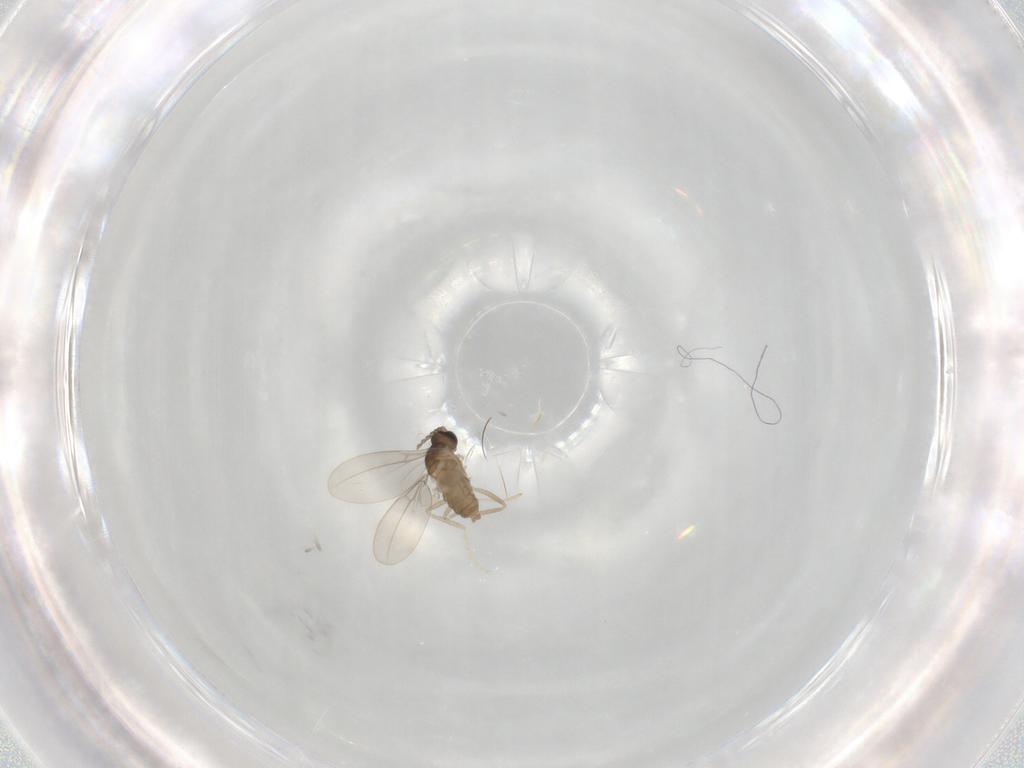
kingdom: Animalia
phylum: Arthropoda
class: Insecta
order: Diptera
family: Cecidomyiidae
